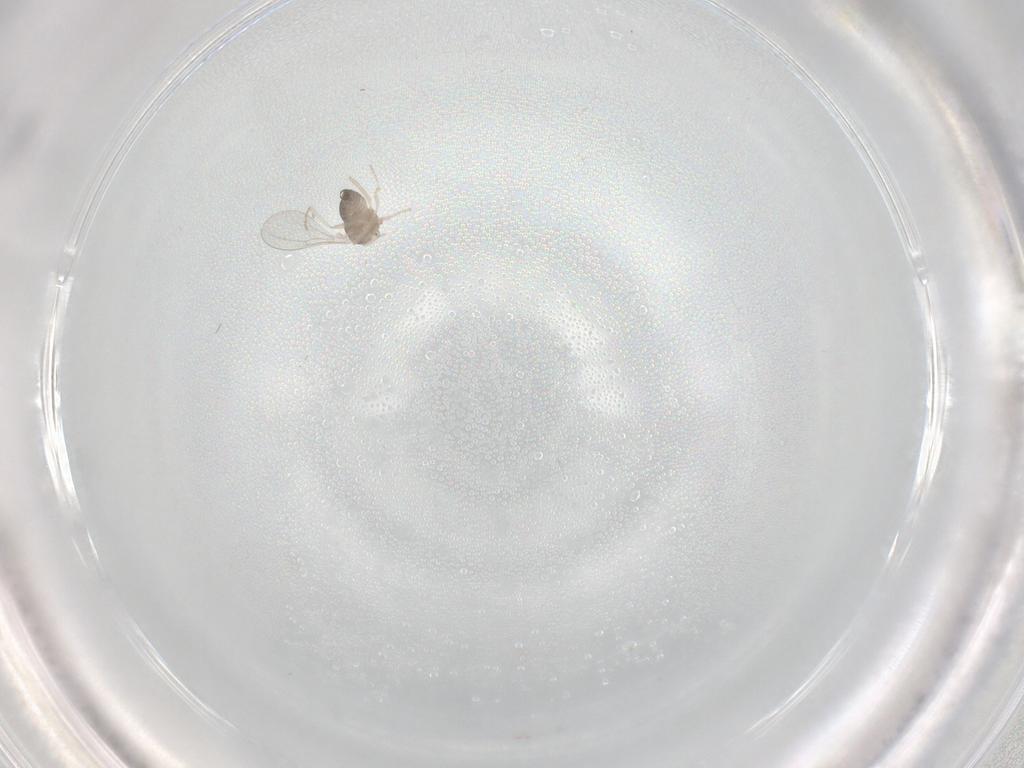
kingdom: Animalia
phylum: Arthropoda
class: Insecta
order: Diptera
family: Cecidomyiidae
